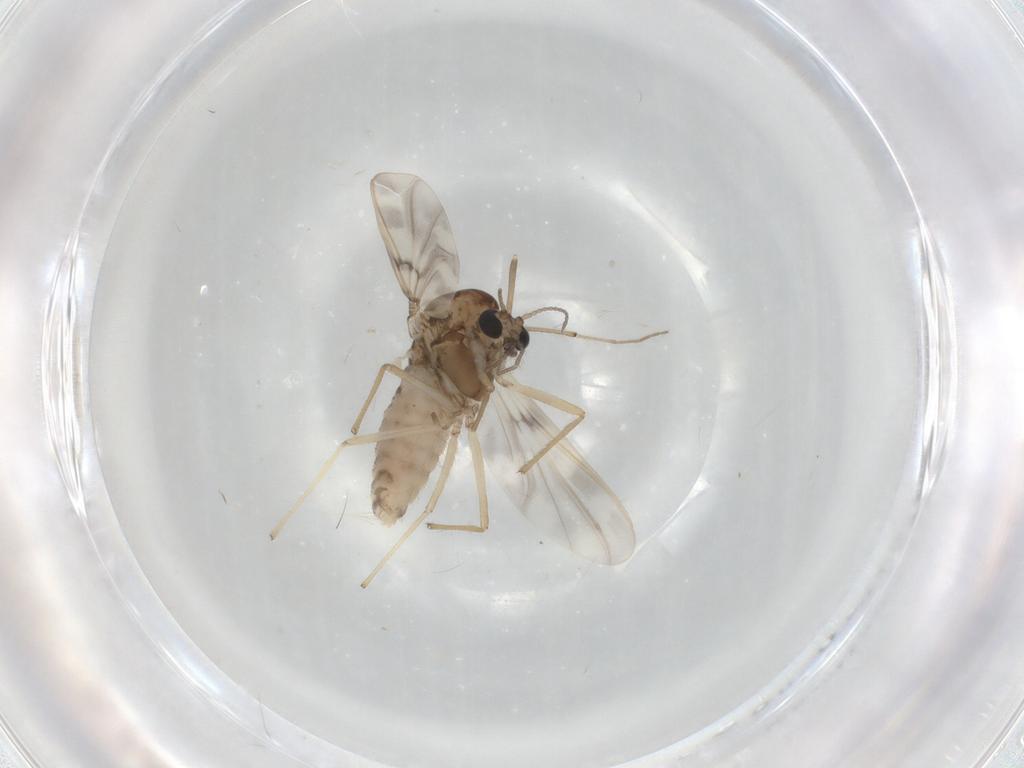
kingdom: Animalia
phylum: Arthropoda
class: Insecta
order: Diptera
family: Chironomidae
